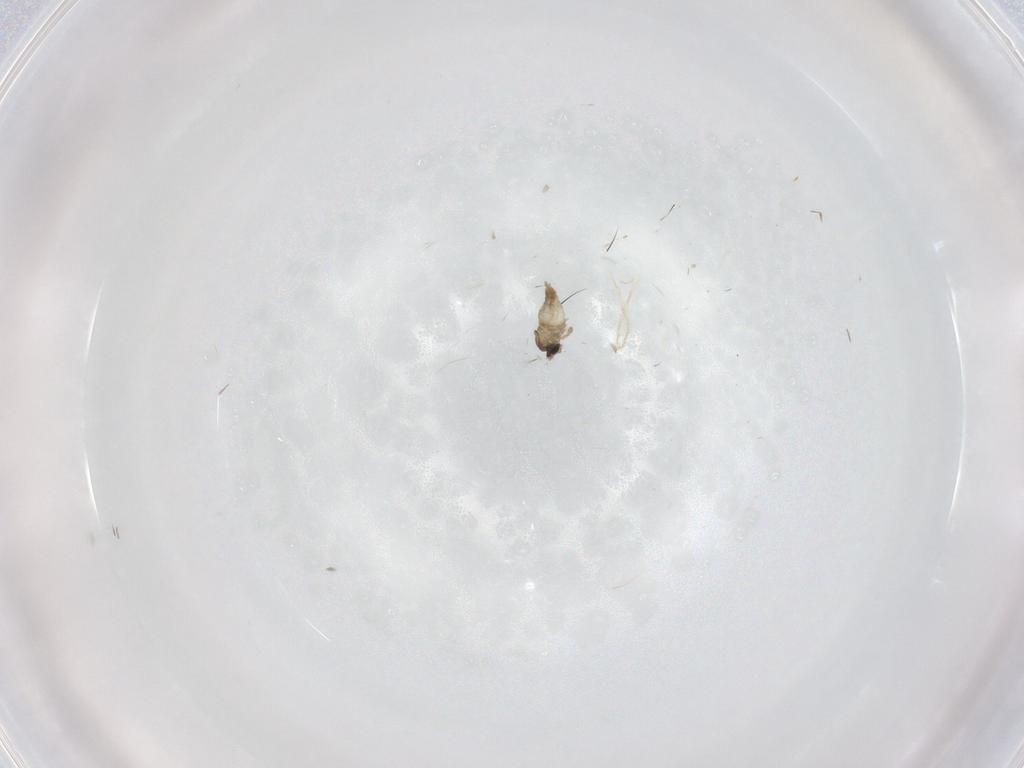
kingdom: Animalia
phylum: Arthropoda
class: Insecta
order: Diptera
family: Cecidomyiidae
